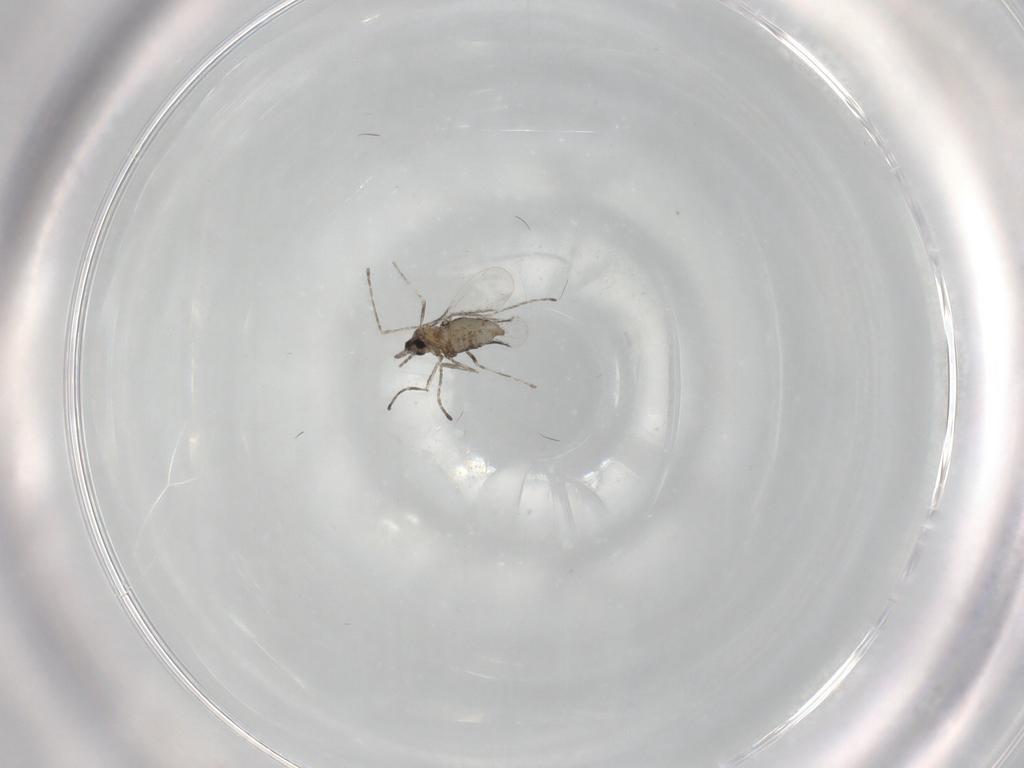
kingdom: Animalia
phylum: Arthropoda
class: Insecta
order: Diptera
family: Cecidomyiidae
